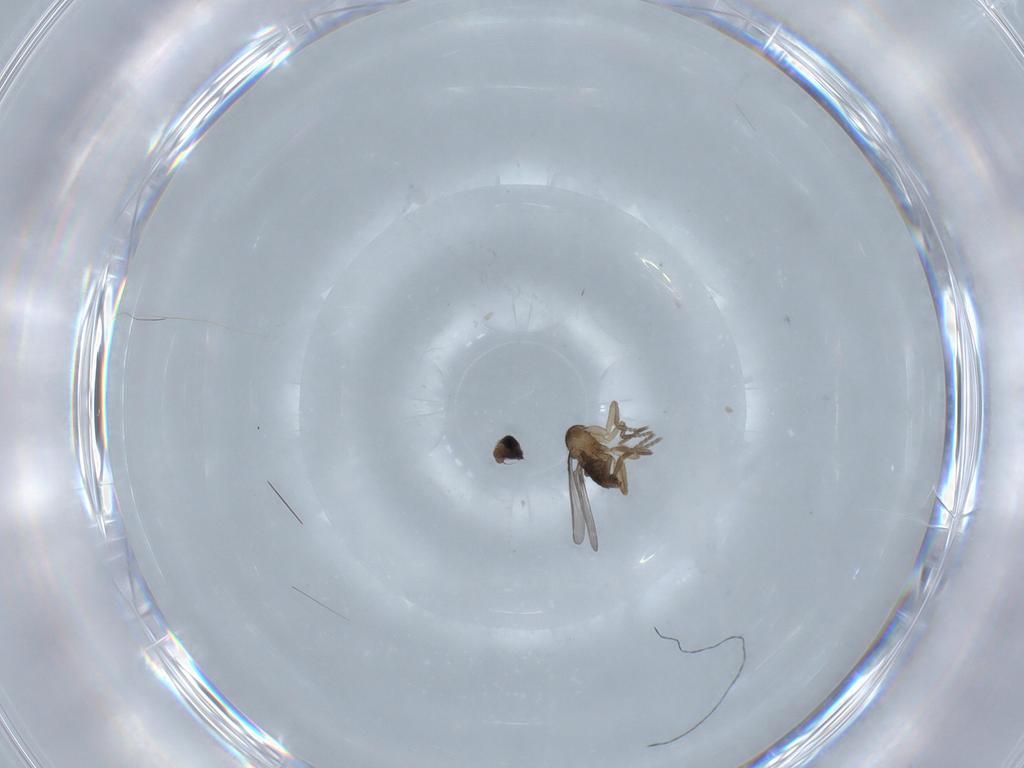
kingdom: Animalia
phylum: Arthropoda
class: Insecta
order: Diptera
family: Phoridae
